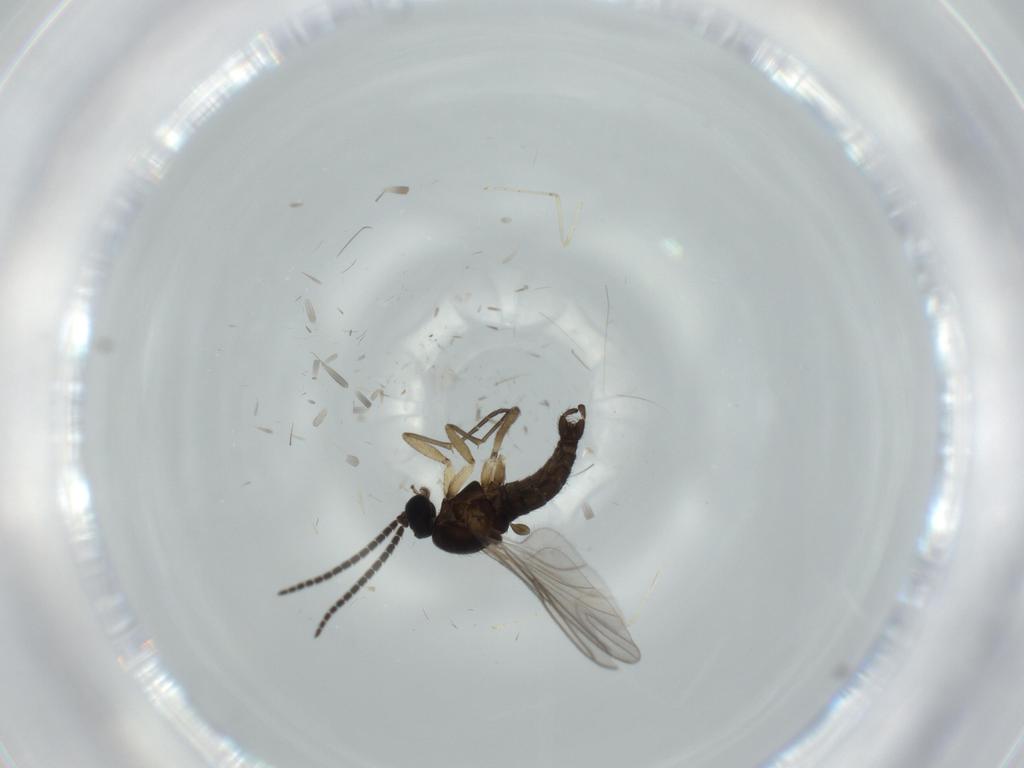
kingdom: Animalia
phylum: Arthropoda
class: Insecta
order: Diptera
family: Sciaridae
